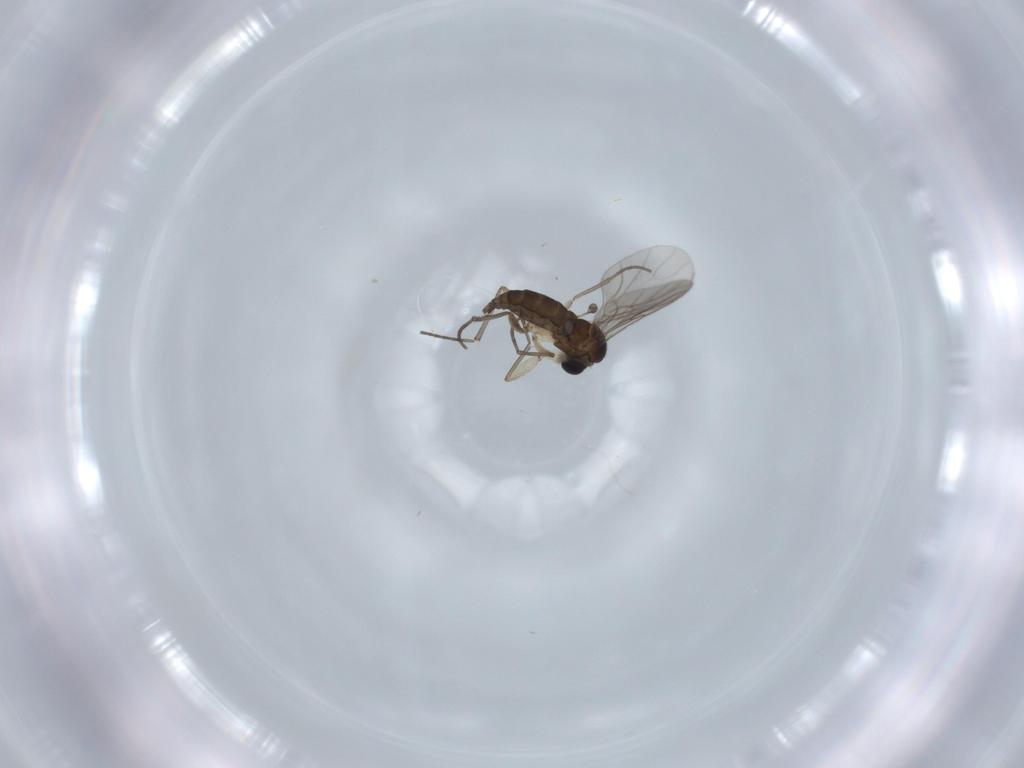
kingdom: Animalia
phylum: Arthropoda
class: Insecta
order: Diptera
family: Sciaridae
